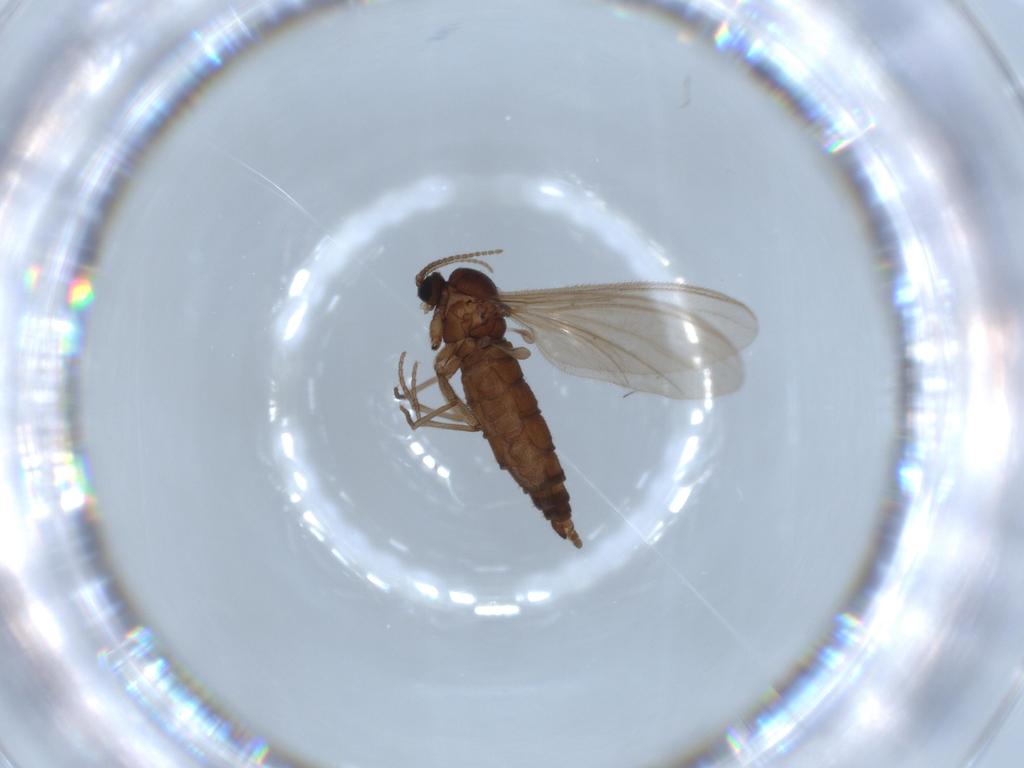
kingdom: Animalia
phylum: Arthropoda
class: Insecta
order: Diptera
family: Sciaridae
